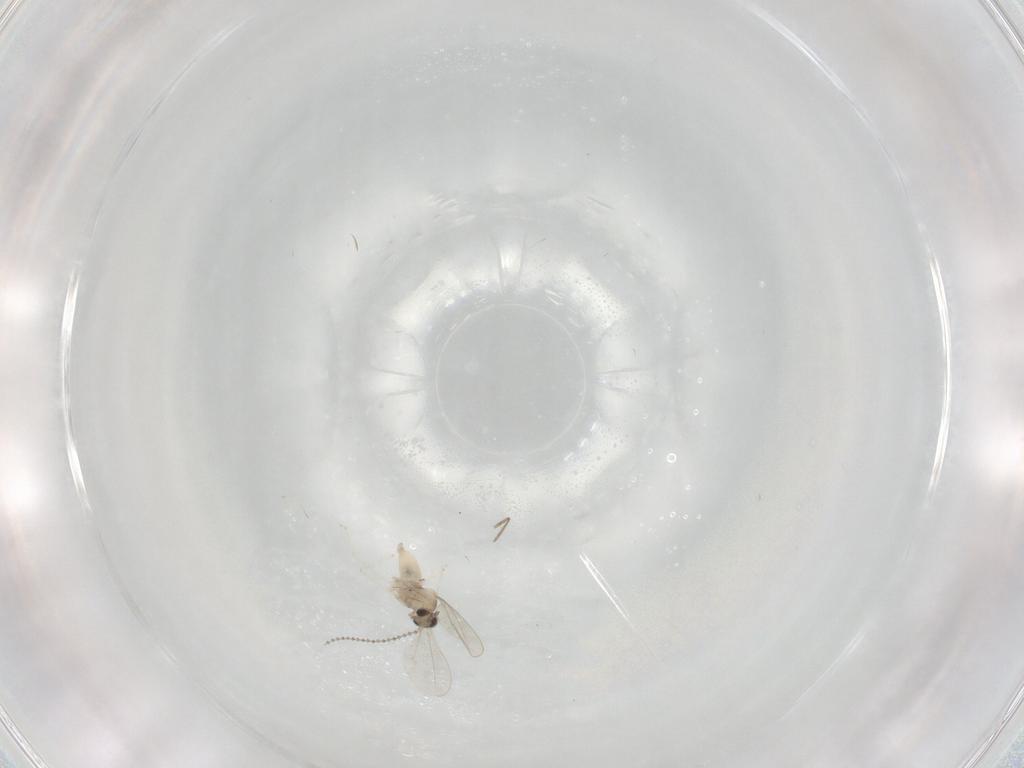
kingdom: Animalia
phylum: Arthropoda
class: Insecta
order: Diptera
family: Cecidomyiidae
